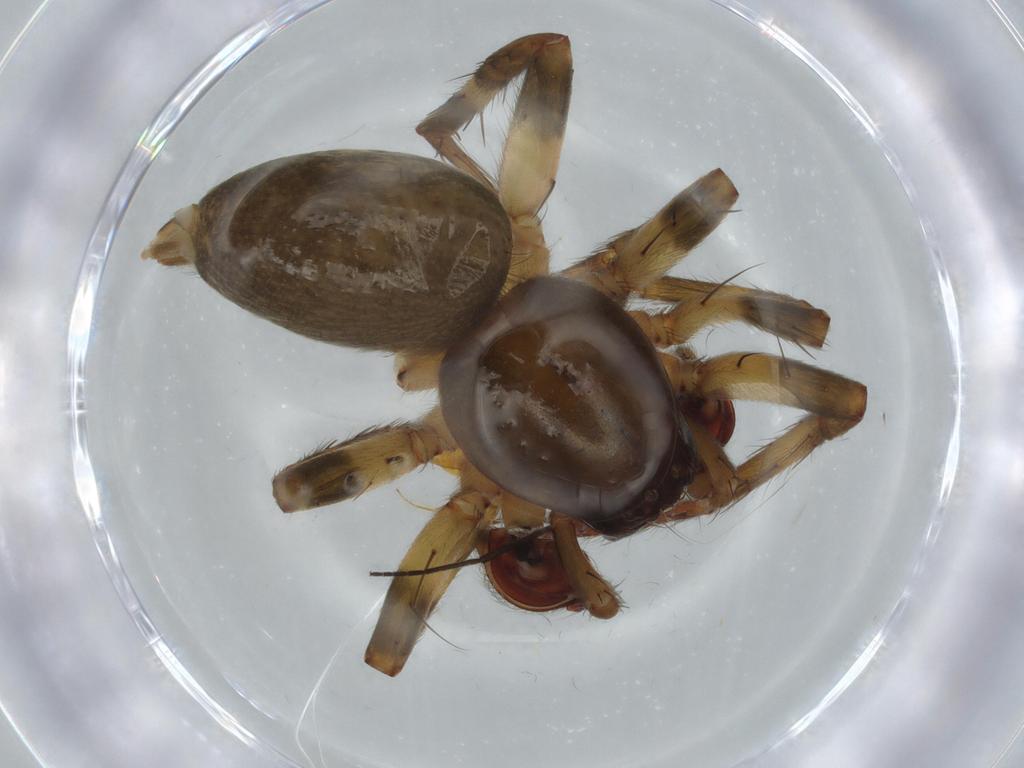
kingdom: Animalia
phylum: Arthropoda
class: Arachnida
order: Araneae
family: Anyphaenidae
